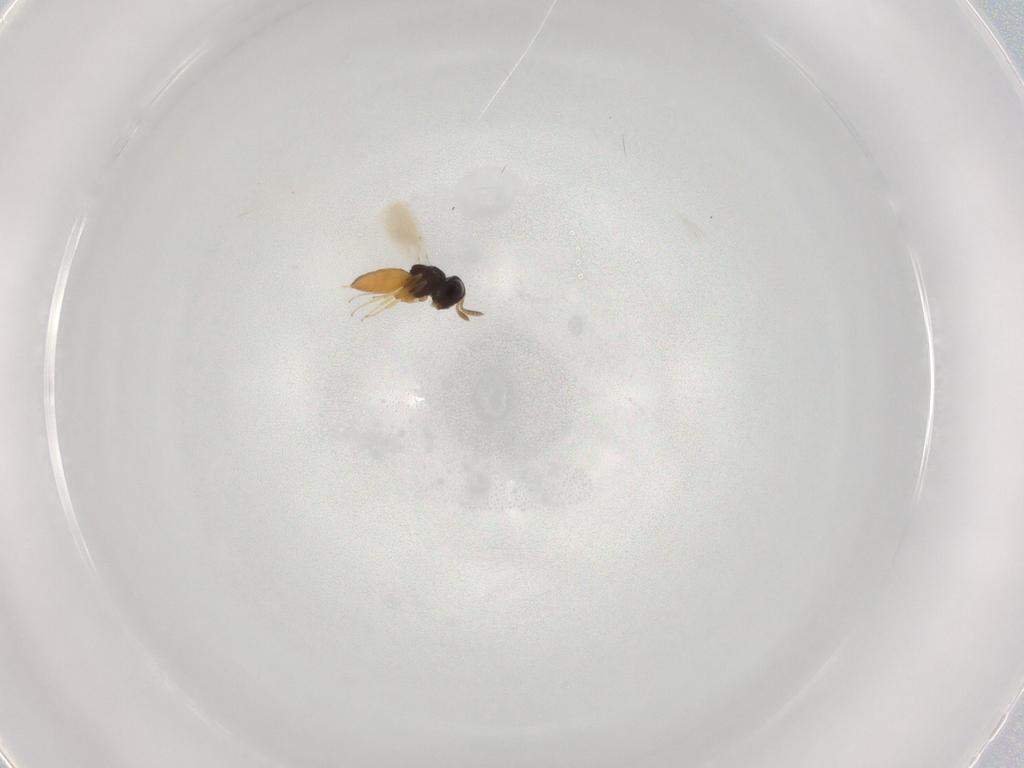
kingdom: Animalia
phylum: Arthropoda
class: Insecta
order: Hymenoptera
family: Scelionidae
